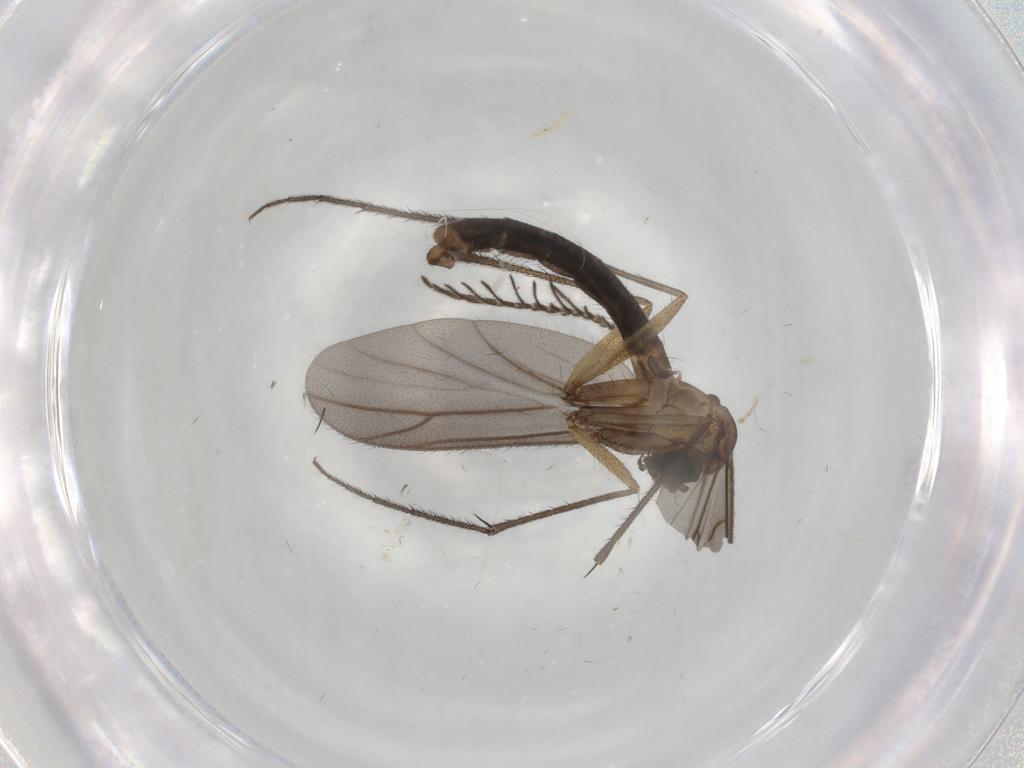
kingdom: Animalia
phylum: Arthropoda
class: Insecta
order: Diptera
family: Ditomyiidae
